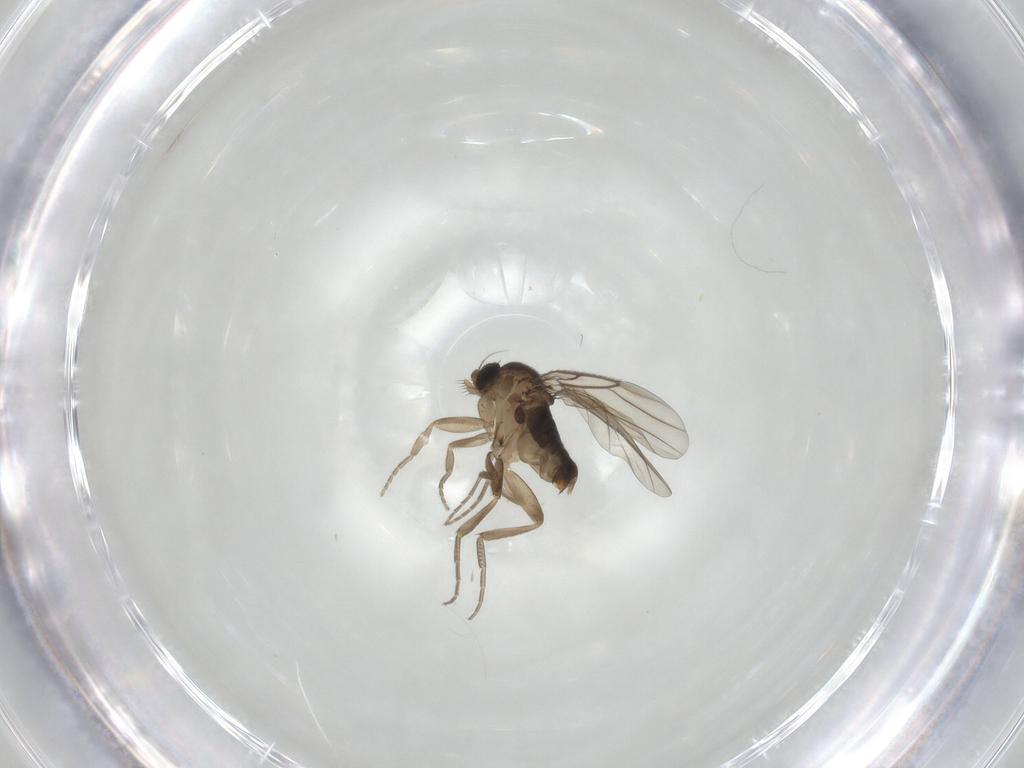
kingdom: Animalia
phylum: Arthropoda
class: Insecta
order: Diptera
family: Phoridae
